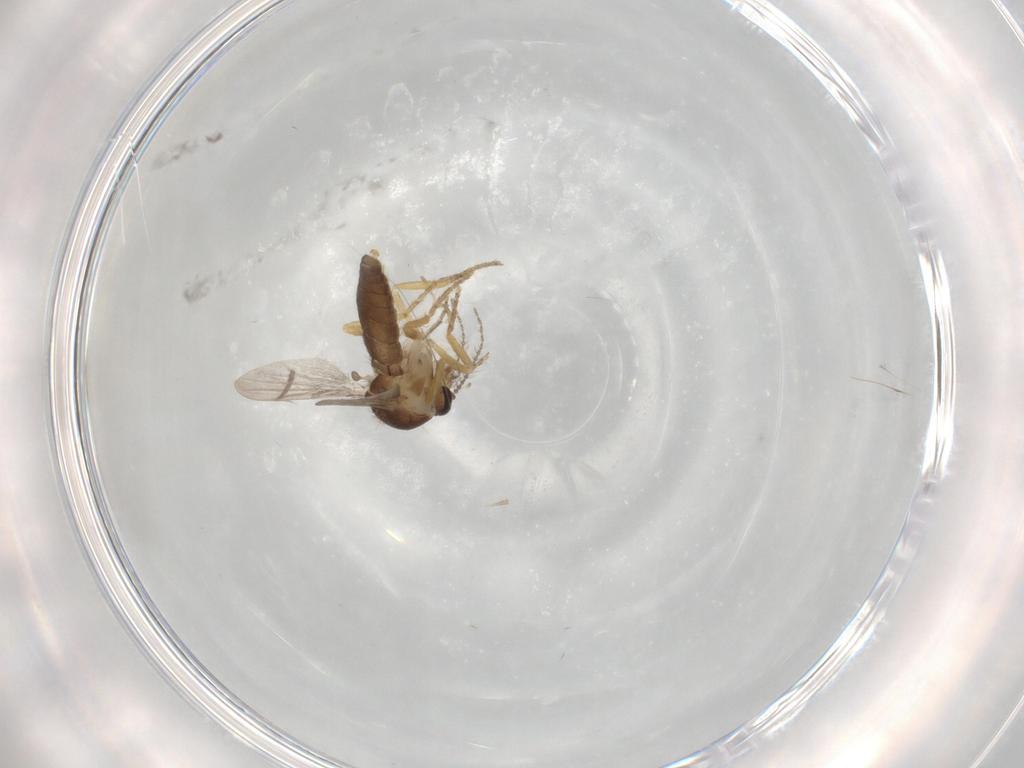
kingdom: Animalia
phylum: Arthropoda
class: Insecta
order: Diptera
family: Ceratopogonidae
